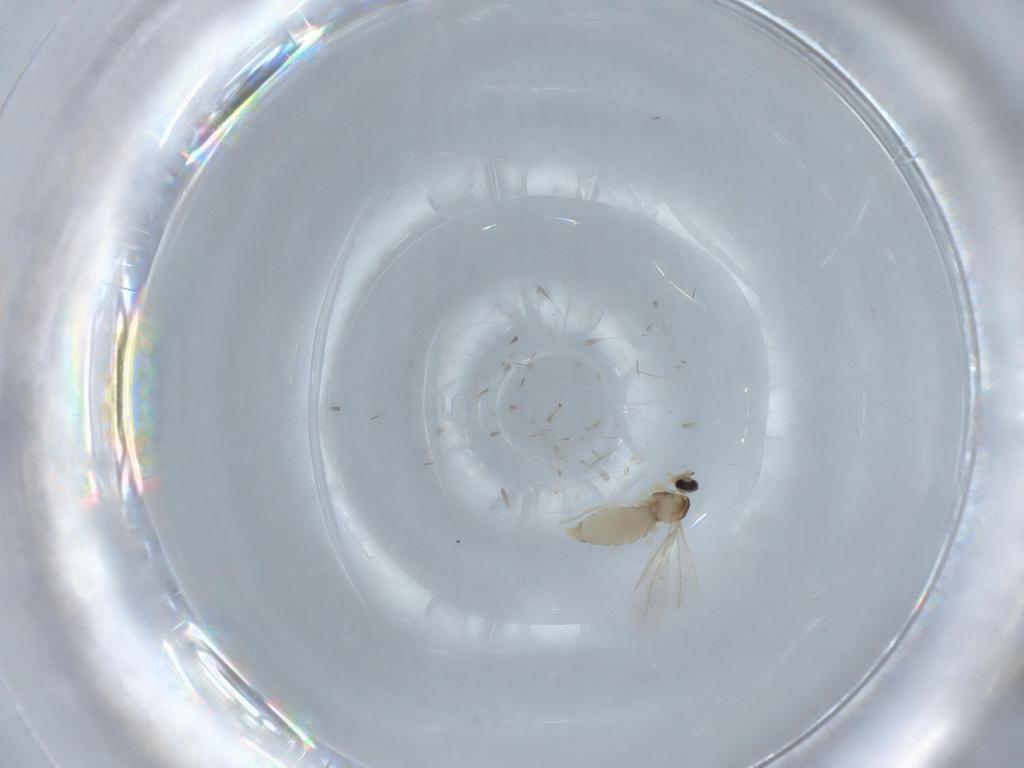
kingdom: Animalia
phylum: Arthropoda
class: Insecta
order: Diptera
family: Cecidomyiidae
